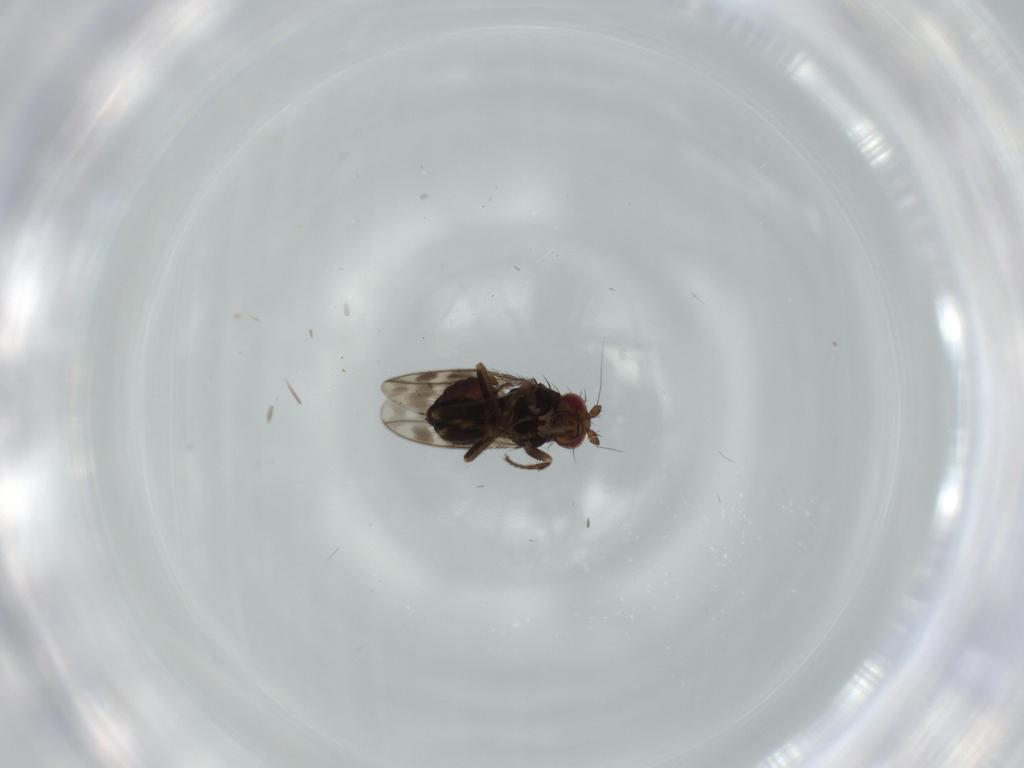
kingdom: Animalia
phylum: Arthropoda
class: Insecta
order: Diptera
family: Sphaeroceridae
